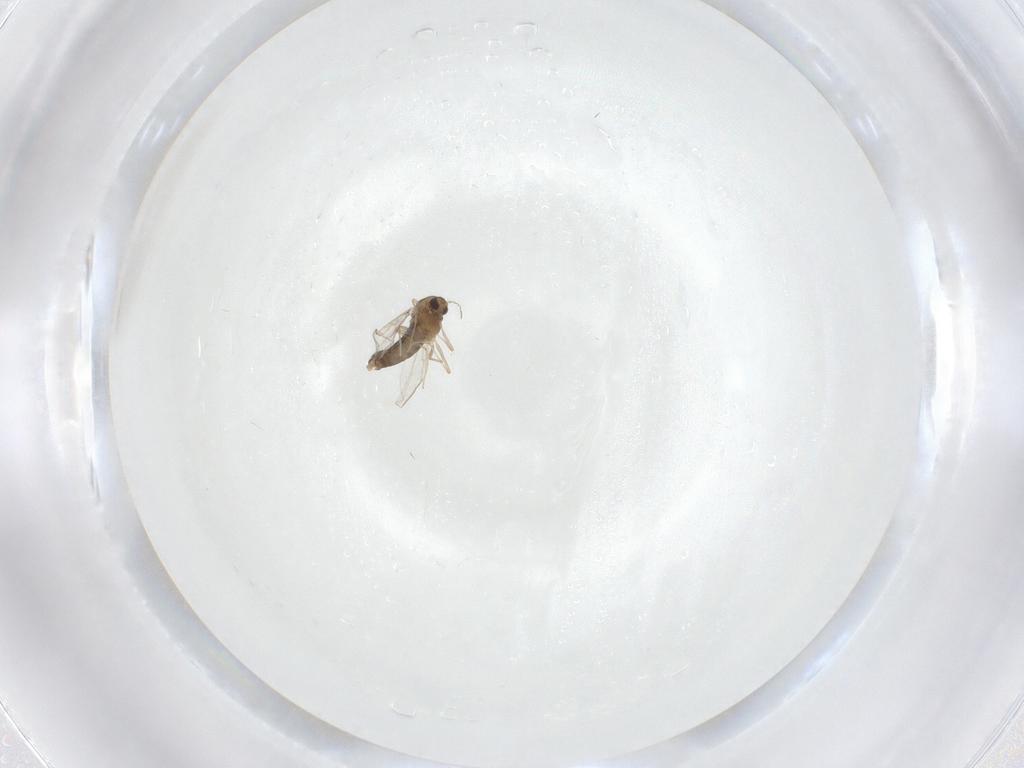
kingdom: Animalia
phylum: Arthropoda
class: Insecta
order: Diptera
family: Chironomidae
